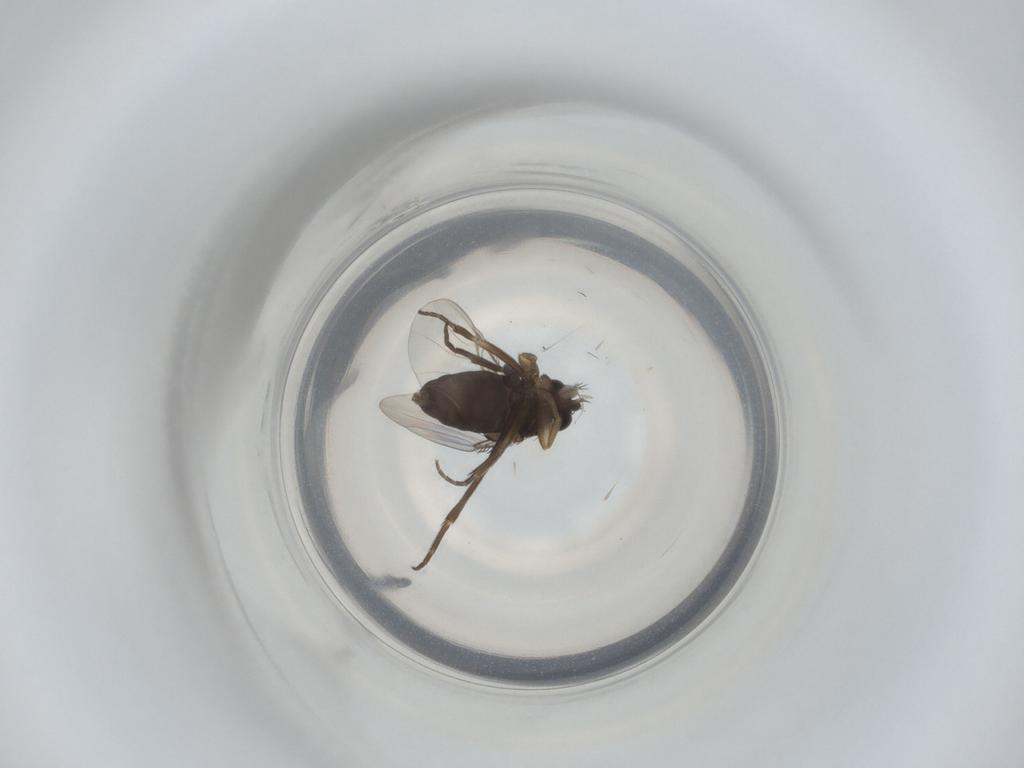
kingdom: Animalia
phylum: Arthropoda
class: Insecta
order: Diptera
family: Phoridae
